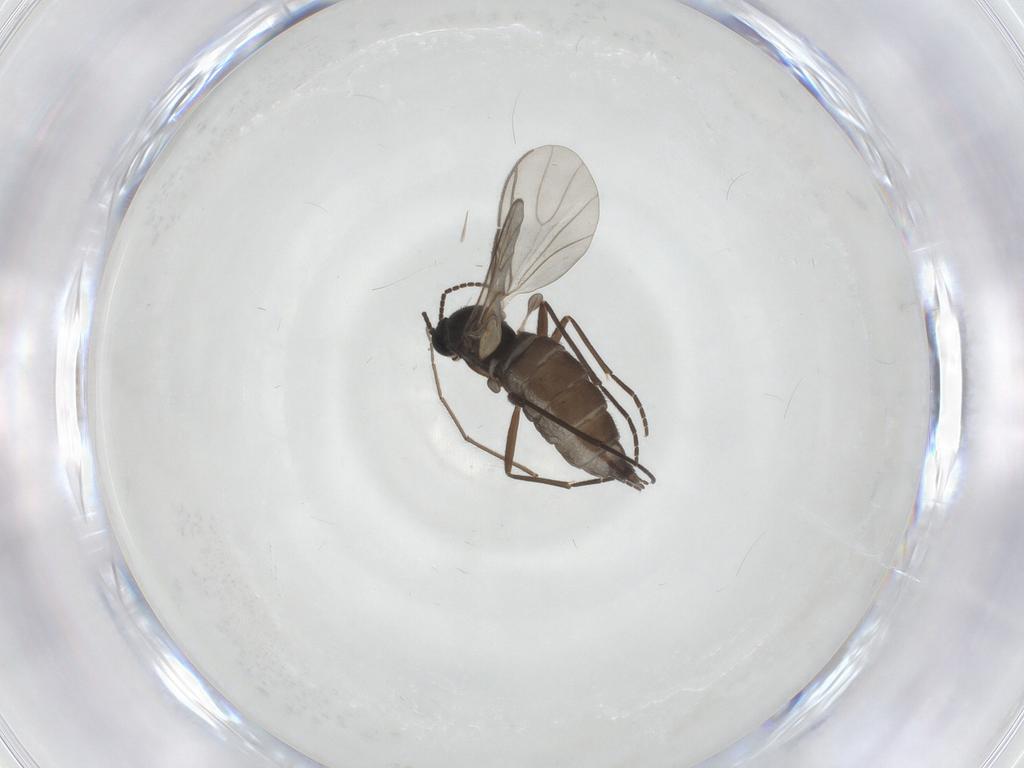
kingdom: Animalia
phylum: Arthropoda
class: Insecta
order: Diptera
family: Sciaridae
